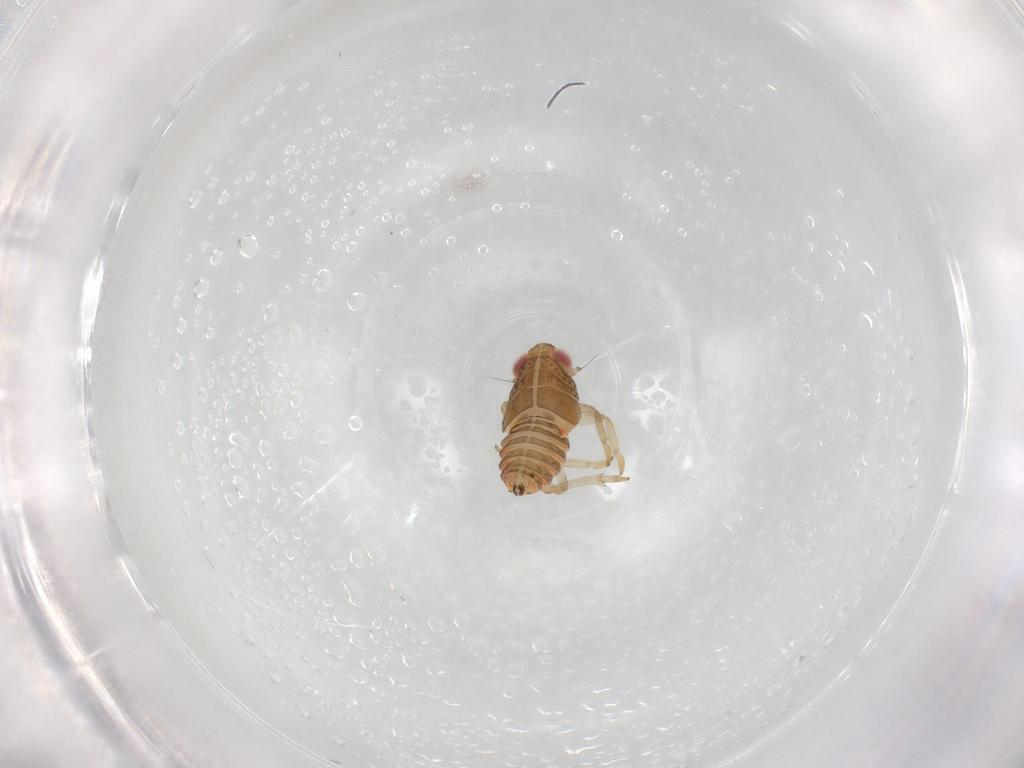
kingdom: Animalia
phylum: Arthropoda
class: Insecta
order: Hemiptera
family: Issidae
